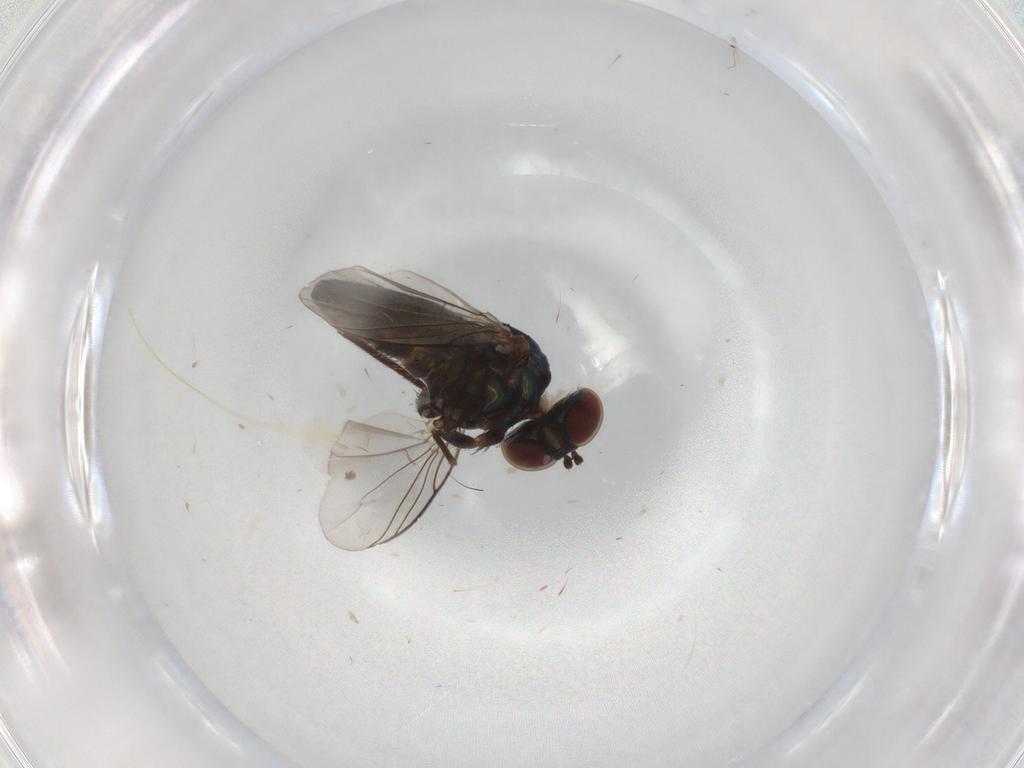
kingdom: Animalia
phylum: Arthropoda
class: Insecta
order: Diptera
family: Dolichopodidae
